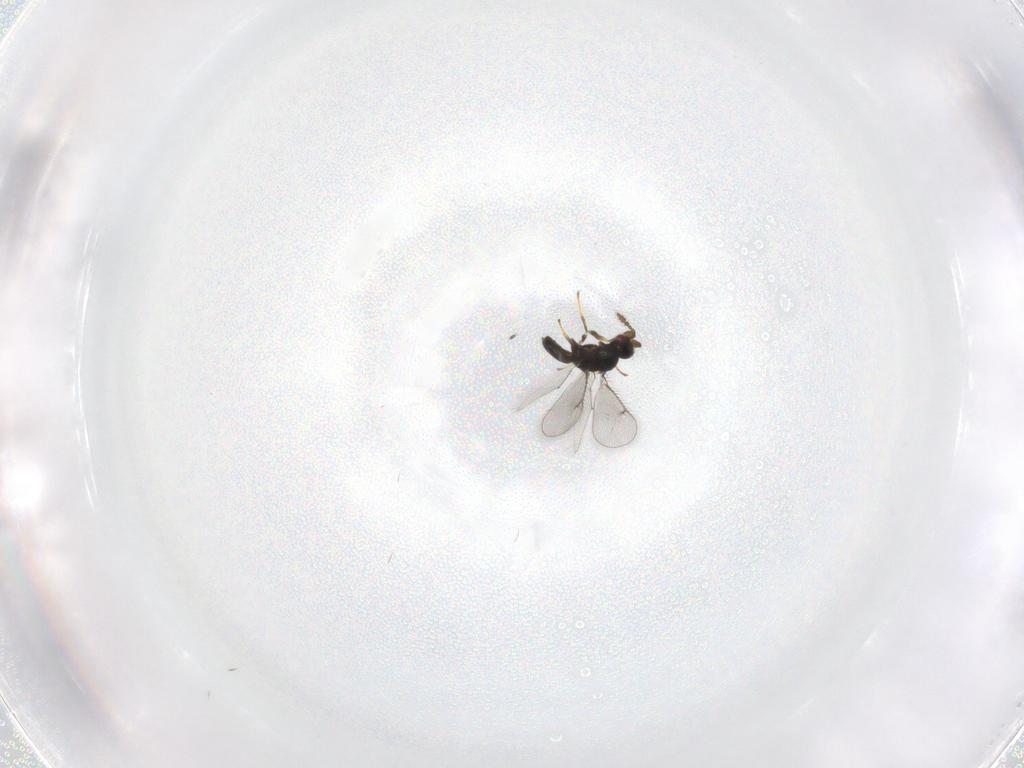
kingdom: Animalia
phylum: Arthropoda
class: Insecta
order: Hymenoptera
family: Eulophidae
